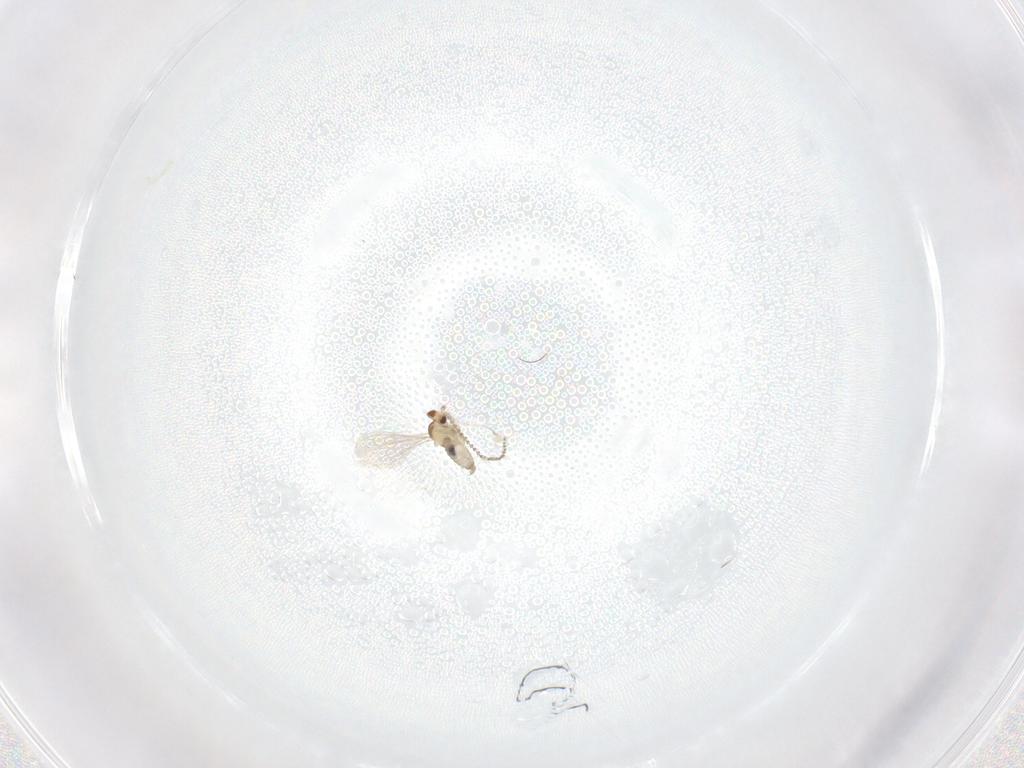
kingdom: Animalia
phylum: Arthropoda
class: Insecta
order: Diptera
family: Cecidomyiidae
